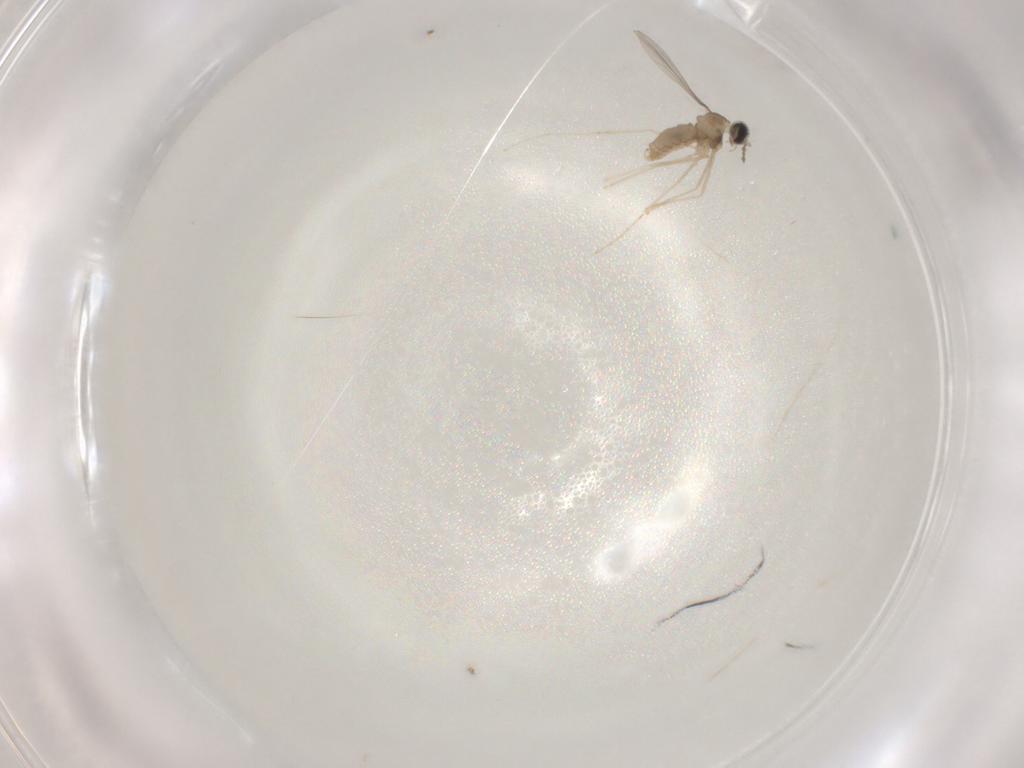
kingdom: Animalia
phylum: Arthropoda
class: Insecta
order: Diptera
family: Cecidomyiidae
